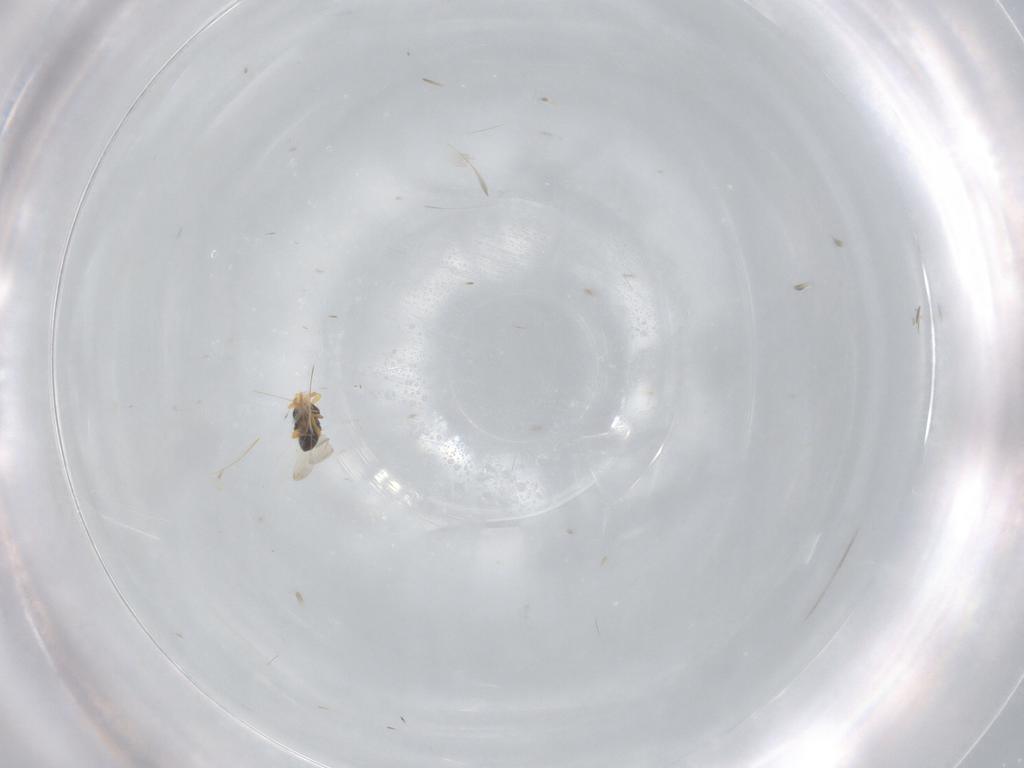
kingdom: Animalia
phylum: Arthropoda
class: Insecta
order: Hymenoptera
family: Platygastridae
